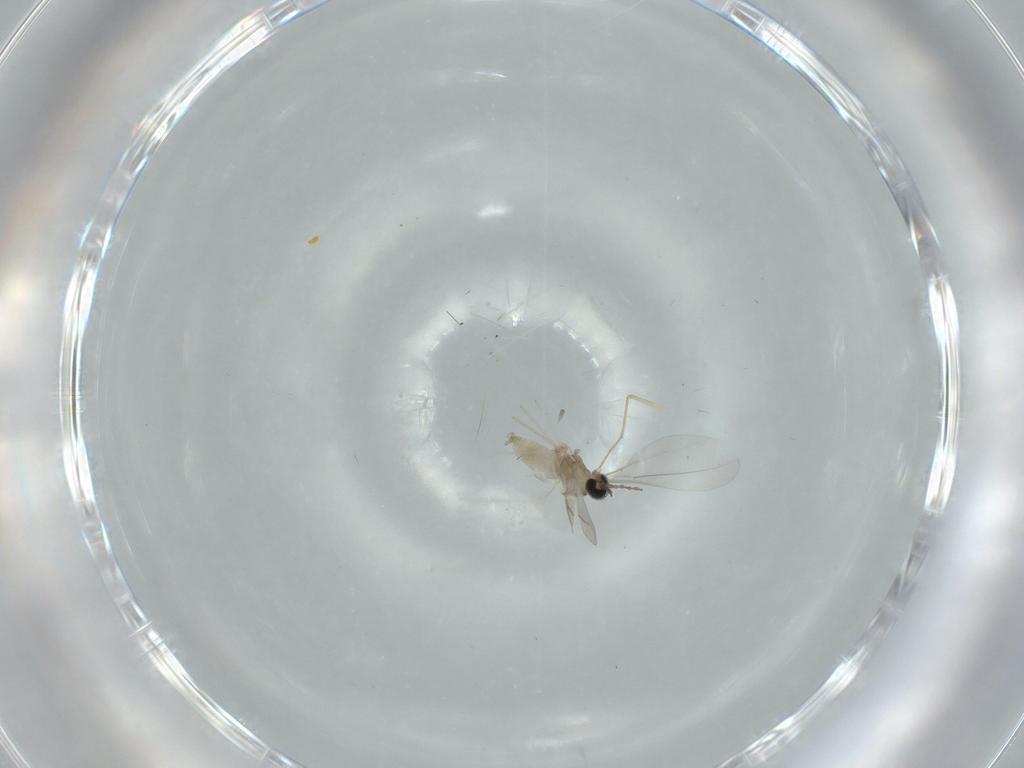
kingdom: Animalia
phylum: Arthropoda
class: Insecta
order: Diptera
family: Cecidomyiidae
